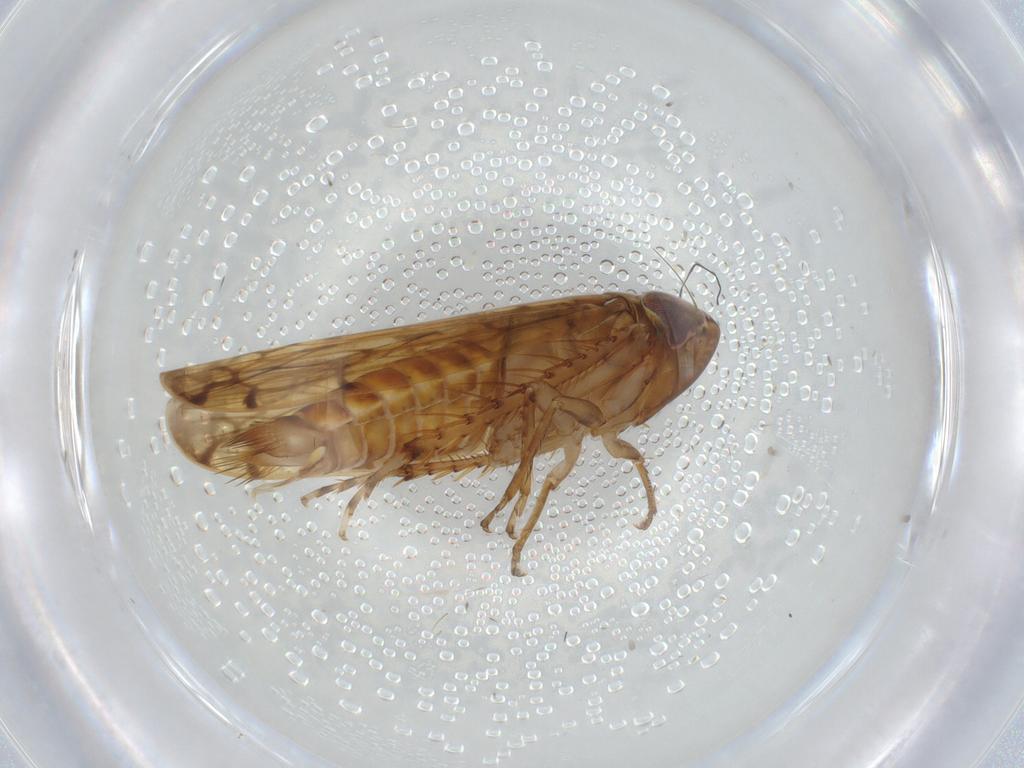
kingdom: Animalia
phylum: Arthropoda
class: Insecta
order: Hemiptera
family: Cicadellidae
